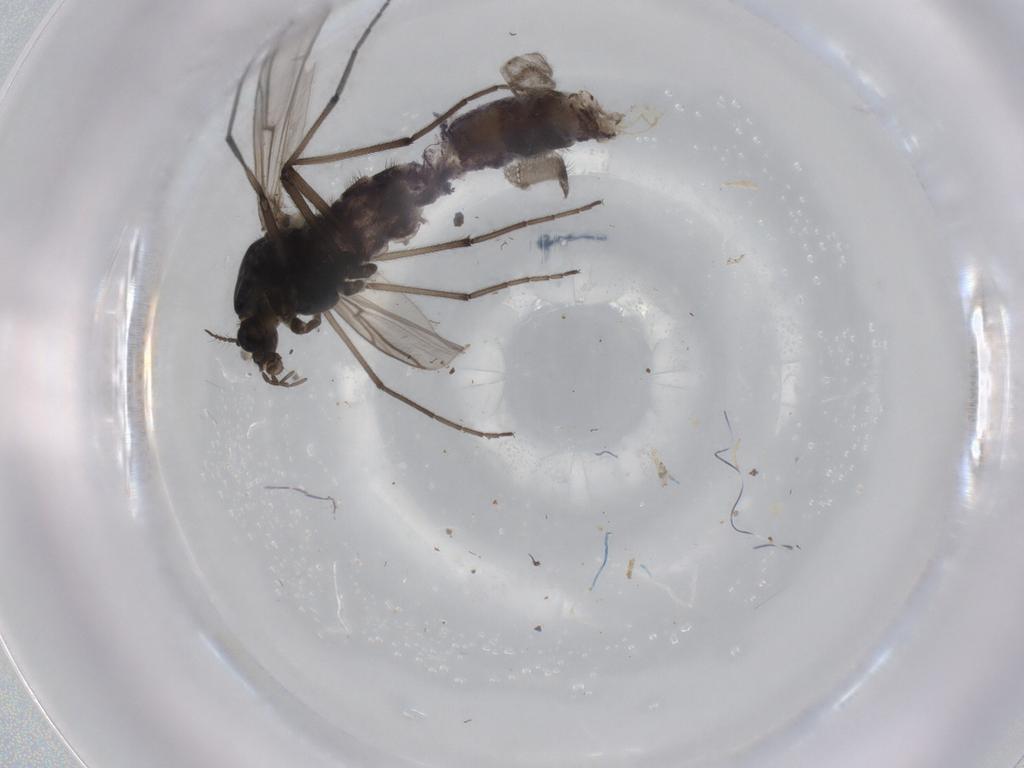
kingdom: Animalia
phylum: Arthropoda
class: Insecta
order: Diptera
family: Chironomidae
